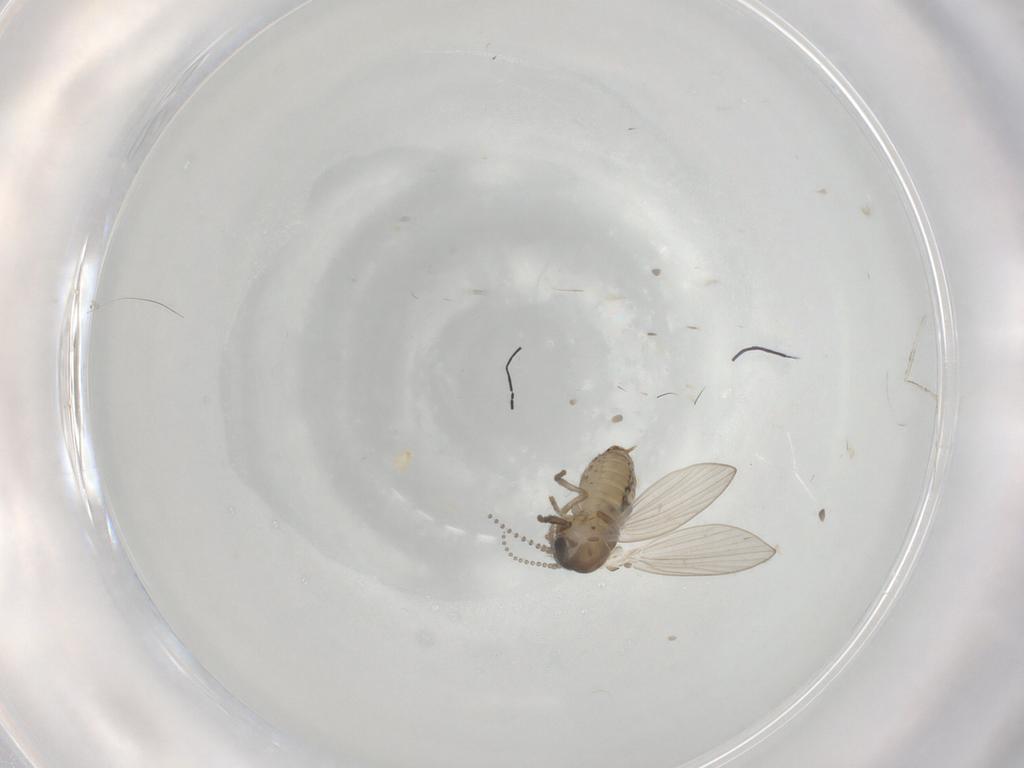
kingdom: Animalia
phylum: Arthropoda
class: Insecta
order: Diptera
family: Psychodidae
